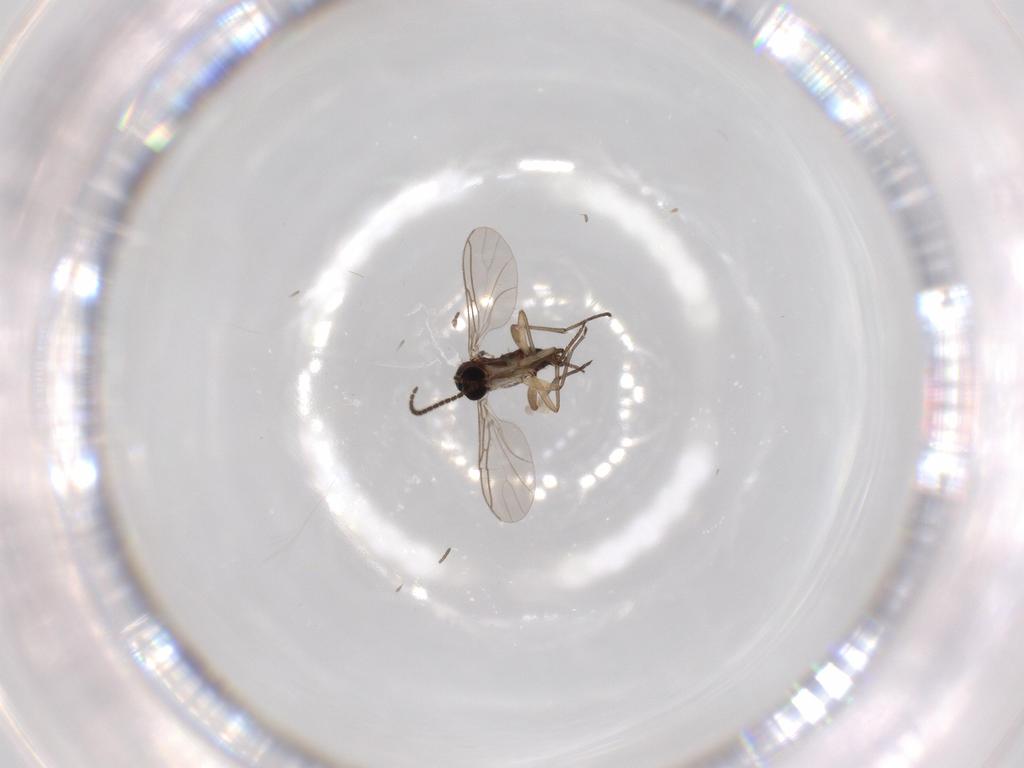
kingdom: Animalia
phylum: Arthropoda
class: Insecta
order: Diptera
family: Sciaridae
